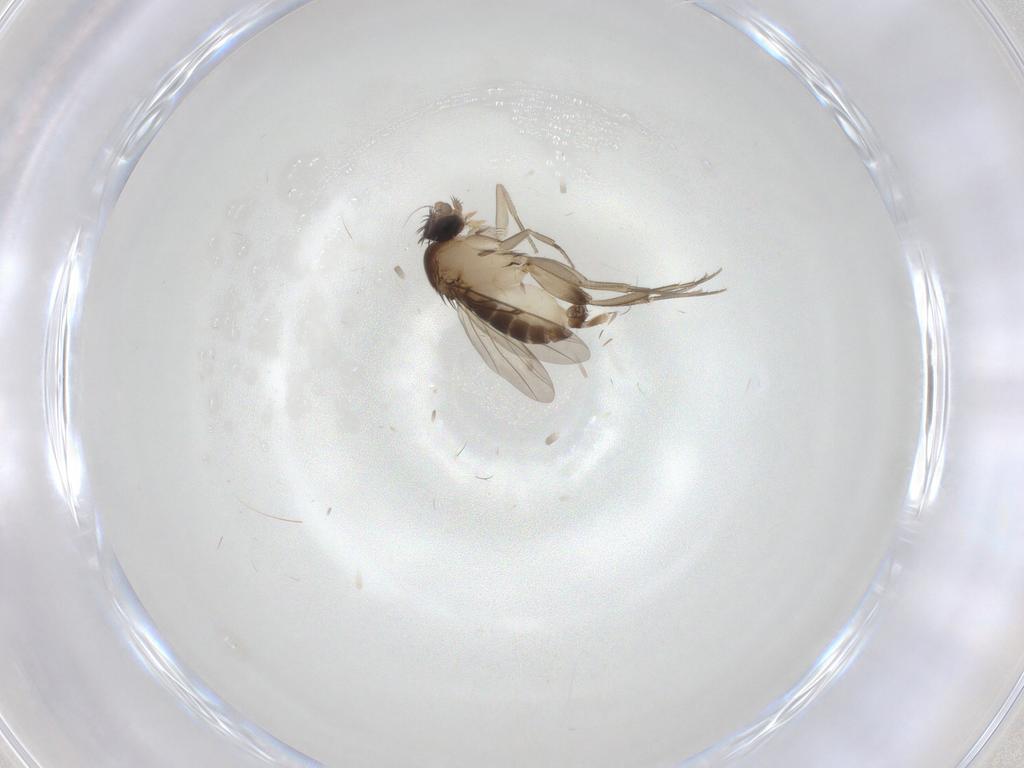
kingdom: Animalia
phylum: Arthropoda
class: Insecta
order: Diptera
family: Phoridae
